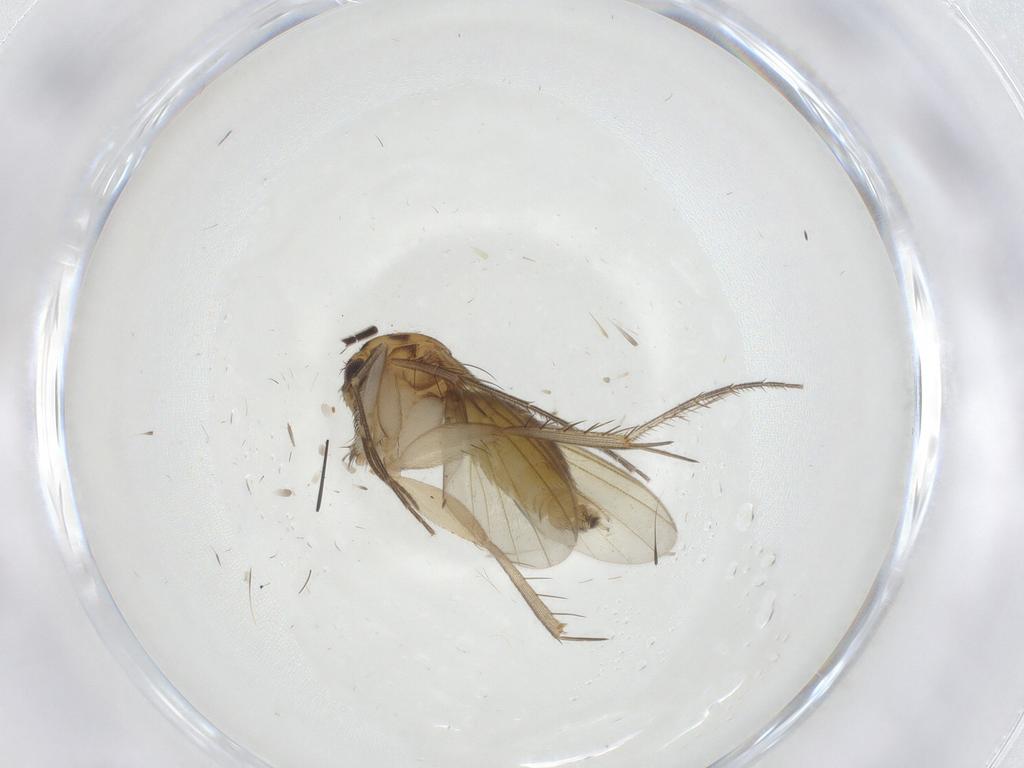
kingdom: Animalia
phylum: Arthropoda
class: Insecta
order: Diptera
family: Mycetophilidae
